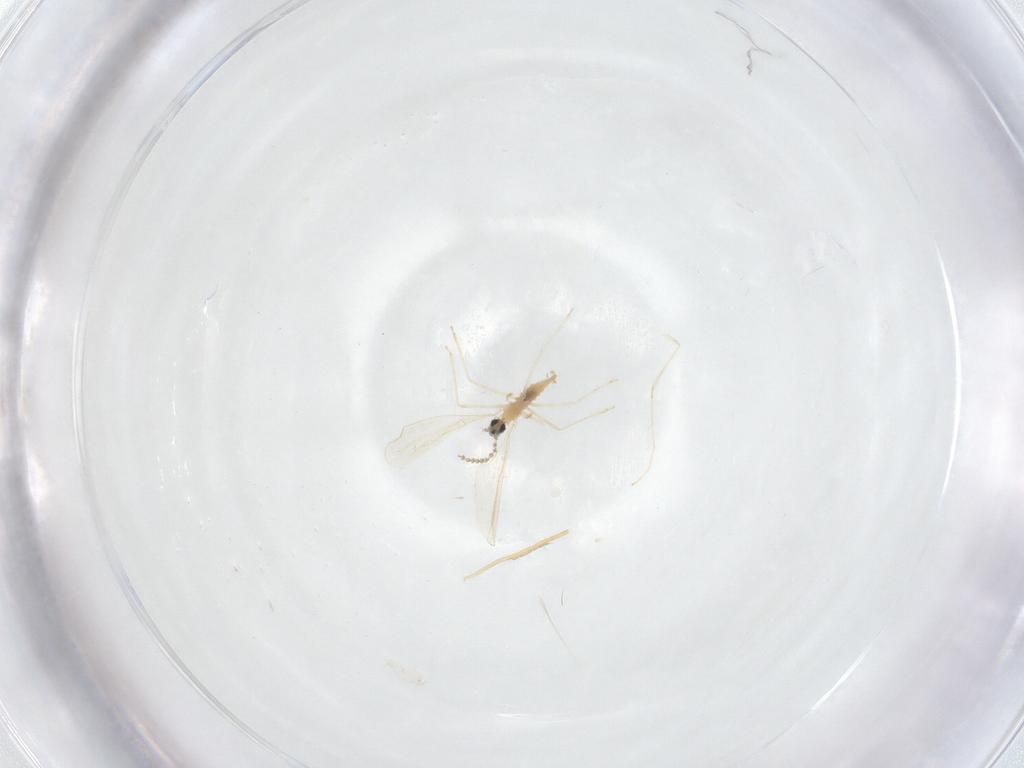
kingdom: Animalia
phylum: Arthropoda
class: Insecta
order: Diptera
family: Cecidomyiidae
